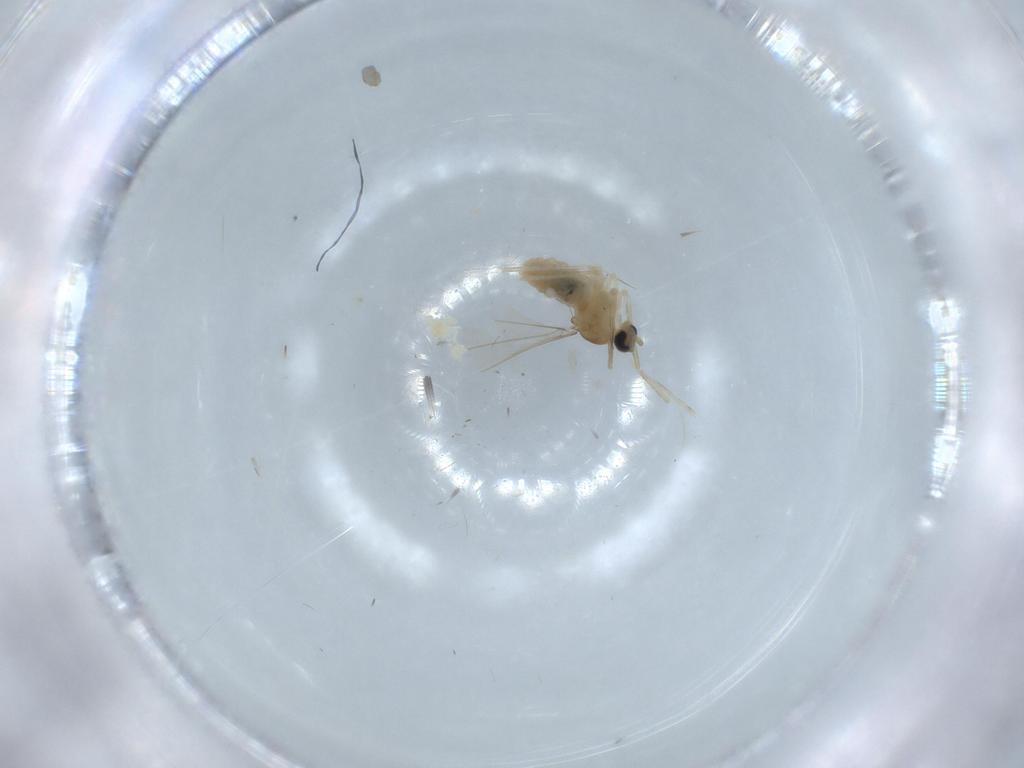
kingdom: Animalia
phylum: Arthropoda
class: Insecta
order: Diptera
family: Cecidomyiidae
